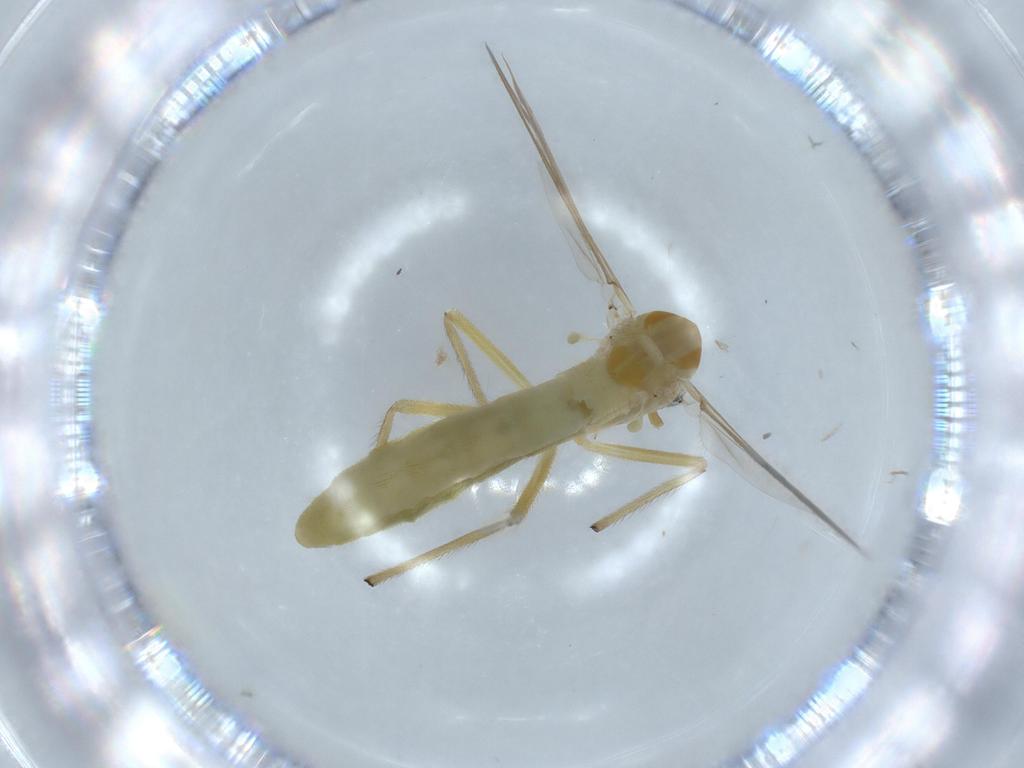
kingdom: Animalia
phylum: Arthropoda
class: Insecta
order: Diptera
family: Chironomidae
